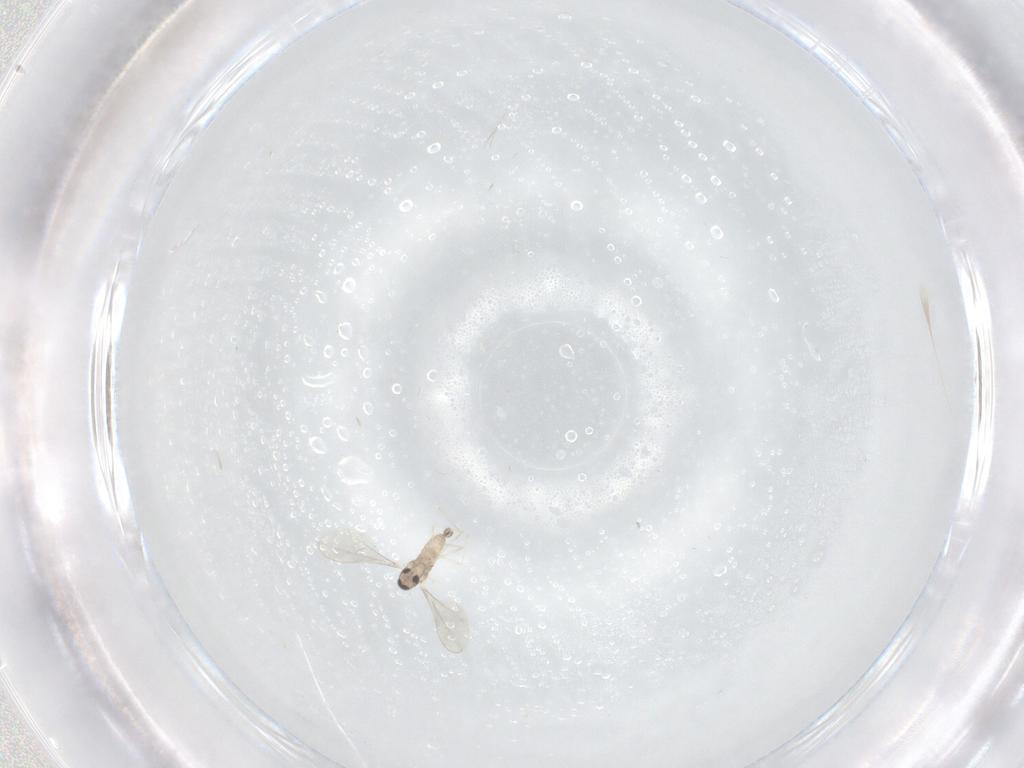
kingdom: Animalia
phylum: Arthropoda
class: Insecta
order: Diptera
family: Cecidomyiidae
